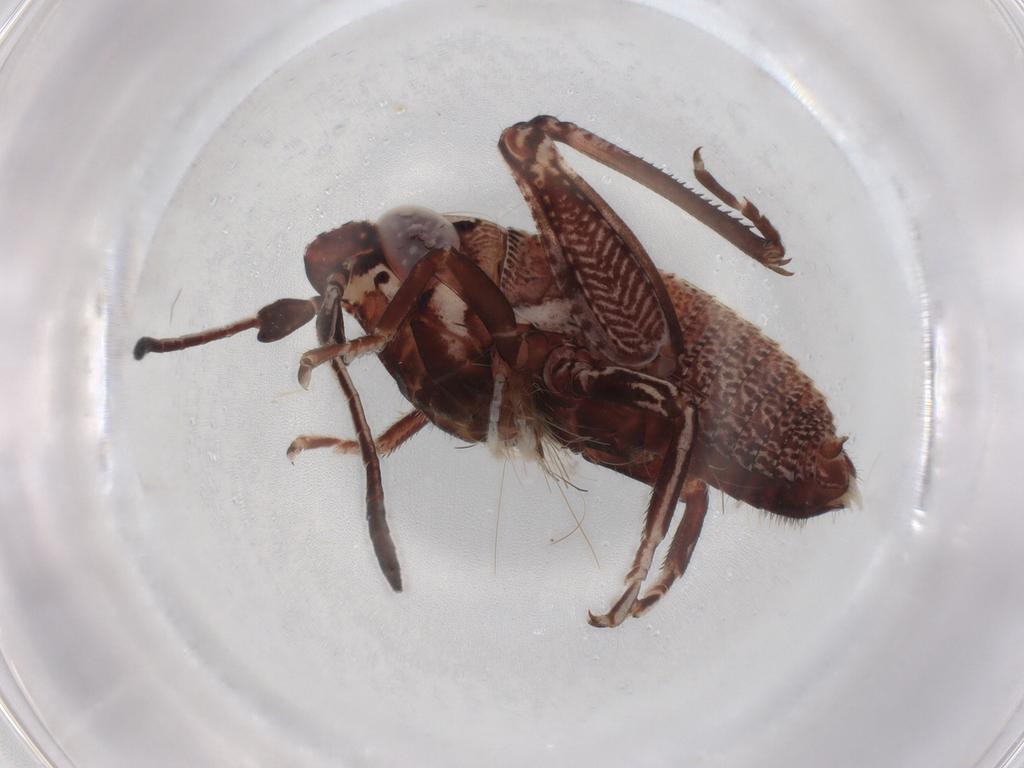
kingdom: Animalia
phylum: Arthropoda
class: Insecta
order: Orthoptera
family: Acrididae
